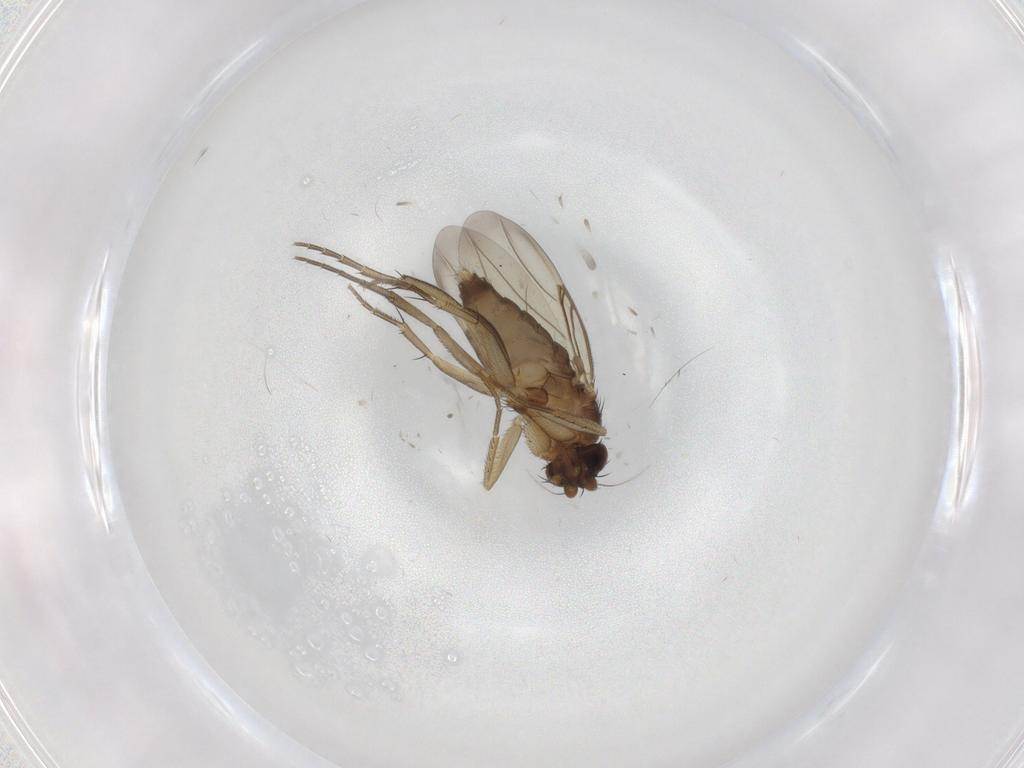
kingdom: Animalia
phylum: Arthropoda
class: Insecta
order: Diptera
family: Phoridae
